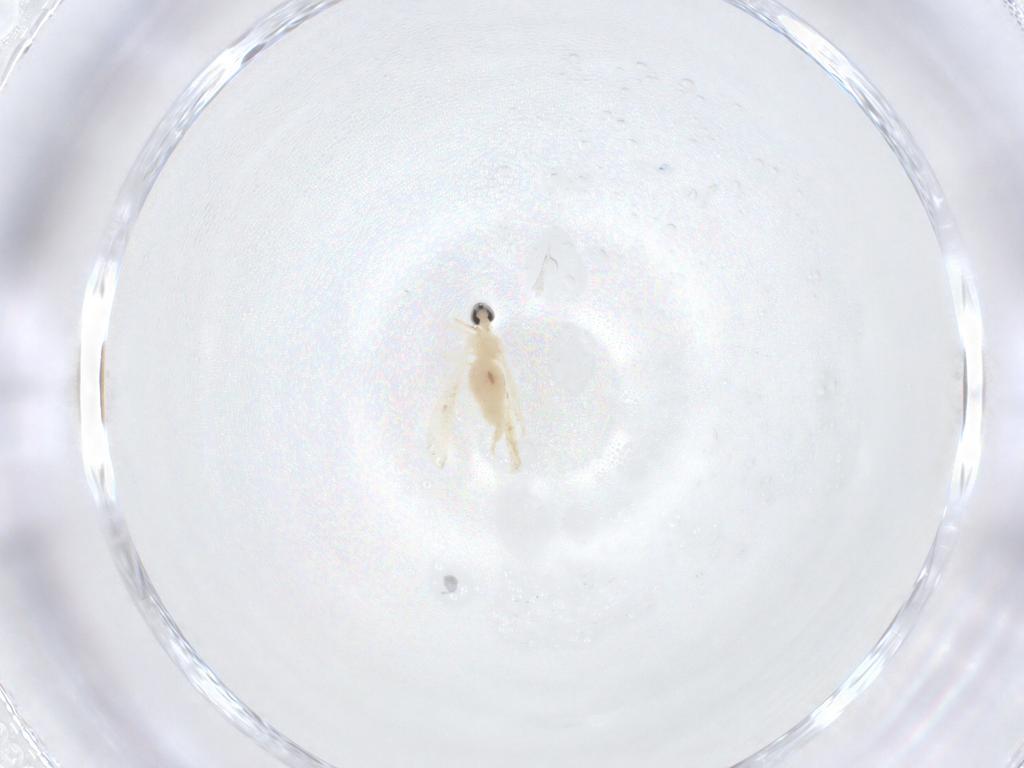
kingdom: Animalia
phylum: Arthropoda
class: Insecta
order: Diptera
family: Cecidomyiidae
